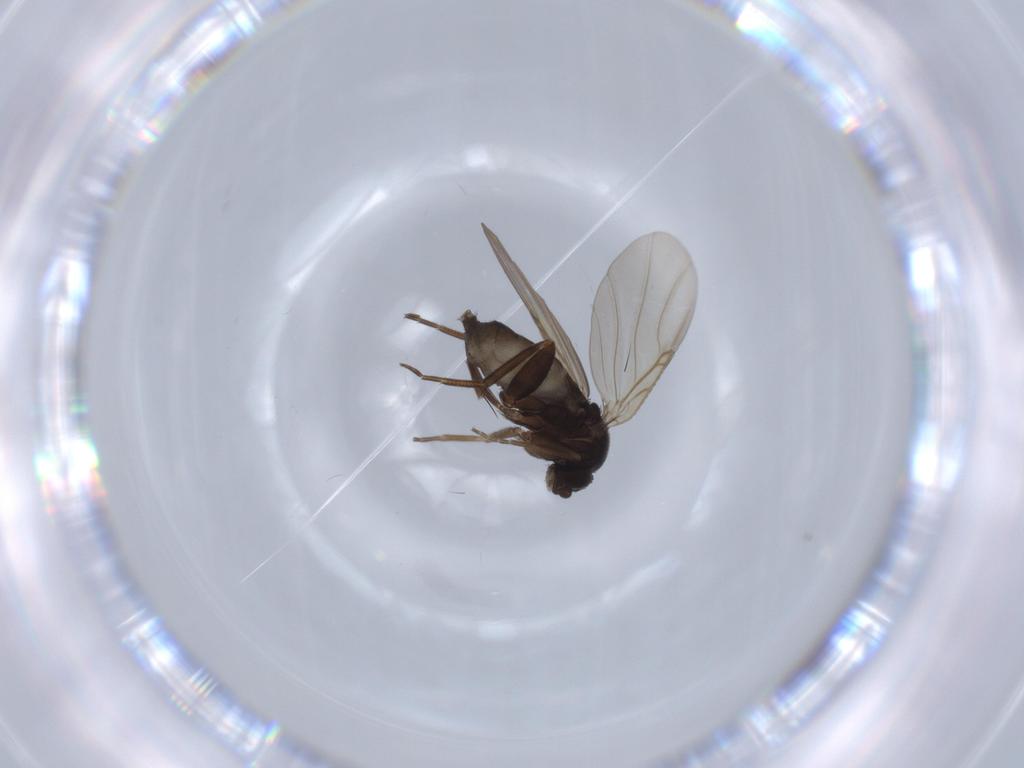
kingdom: Animalia
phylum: Arthropoda
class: Insecta
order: Diptera
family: Phoridae
